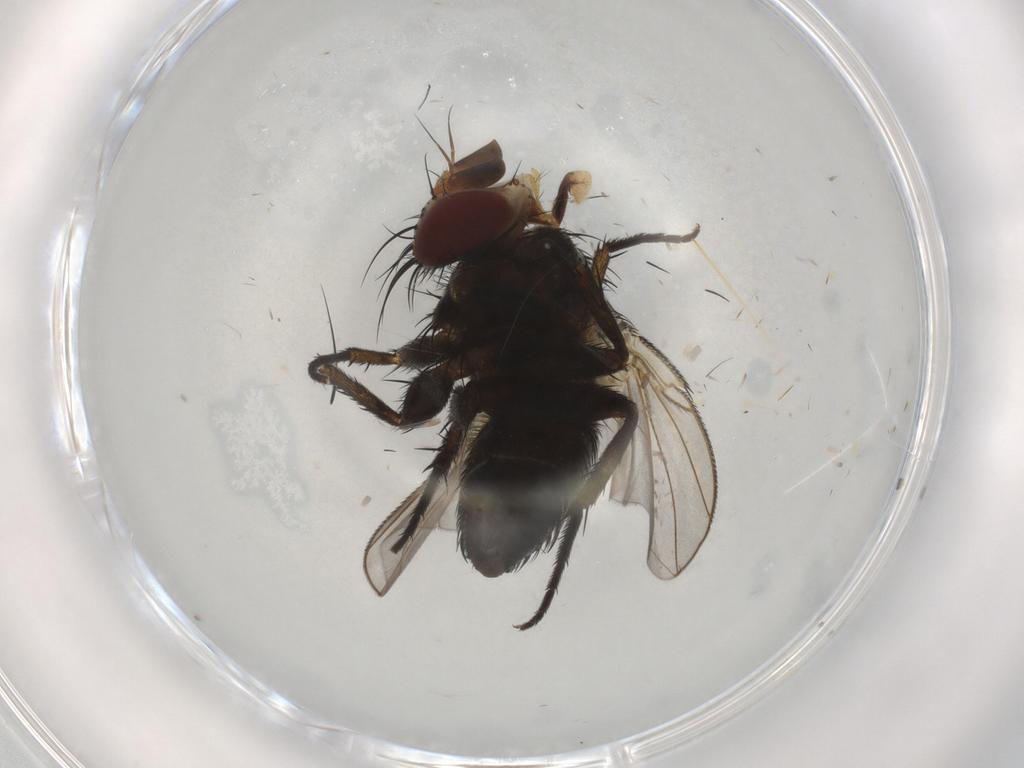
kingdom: Animalia
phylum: Arthropoda
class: Insecta
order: Diptera
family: Tachinidae
